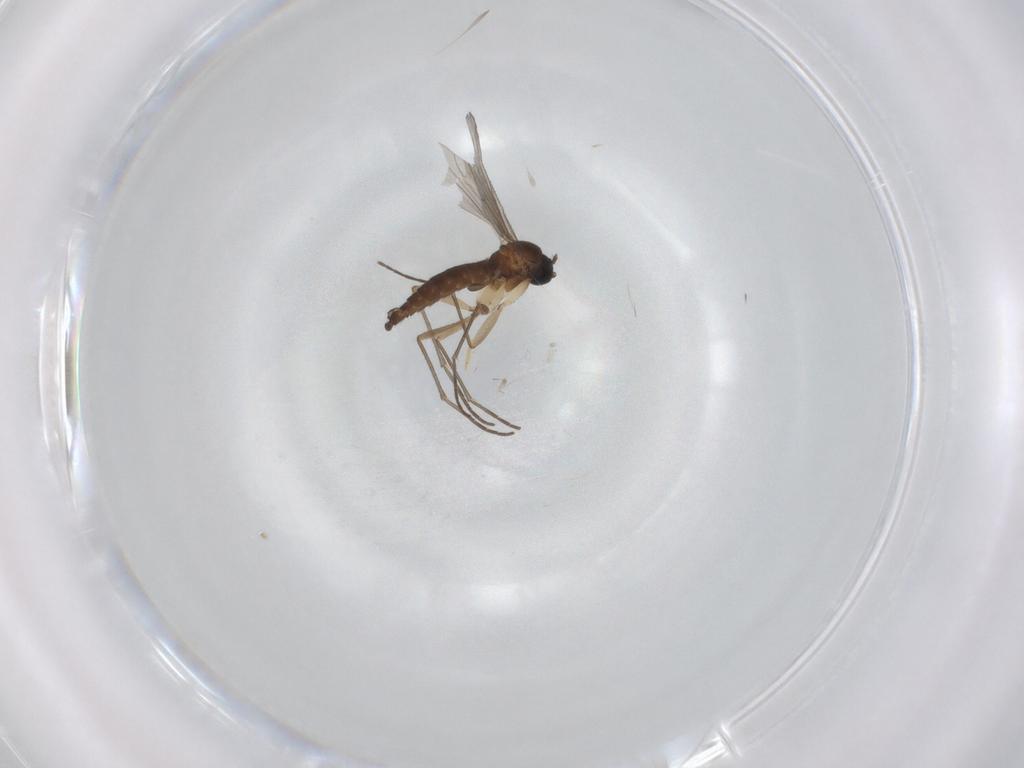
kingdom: Animalia
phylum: Arthropoda
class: Insecta
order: Diptera
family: Sciaridae
